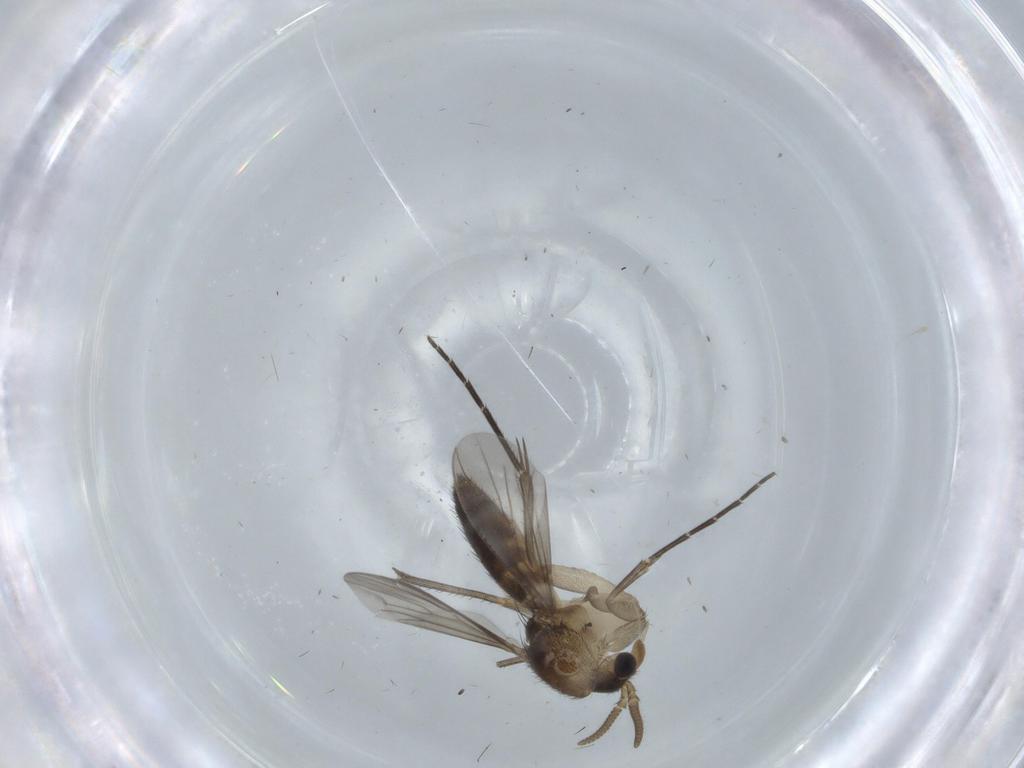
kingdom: Animalia
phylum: Arthropoda
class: Insecta
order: Diptera
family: Mycetophilidae
